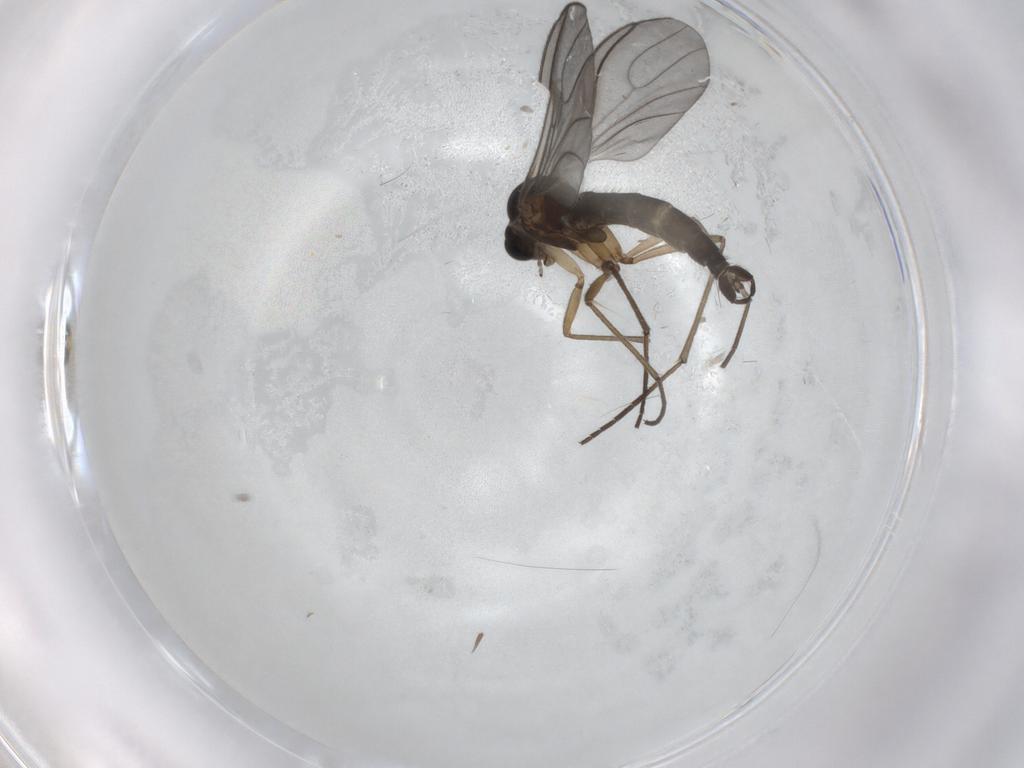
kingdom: Animalia
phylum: Arthropoda
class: Insecta
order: Diptera
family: Sciaridae
